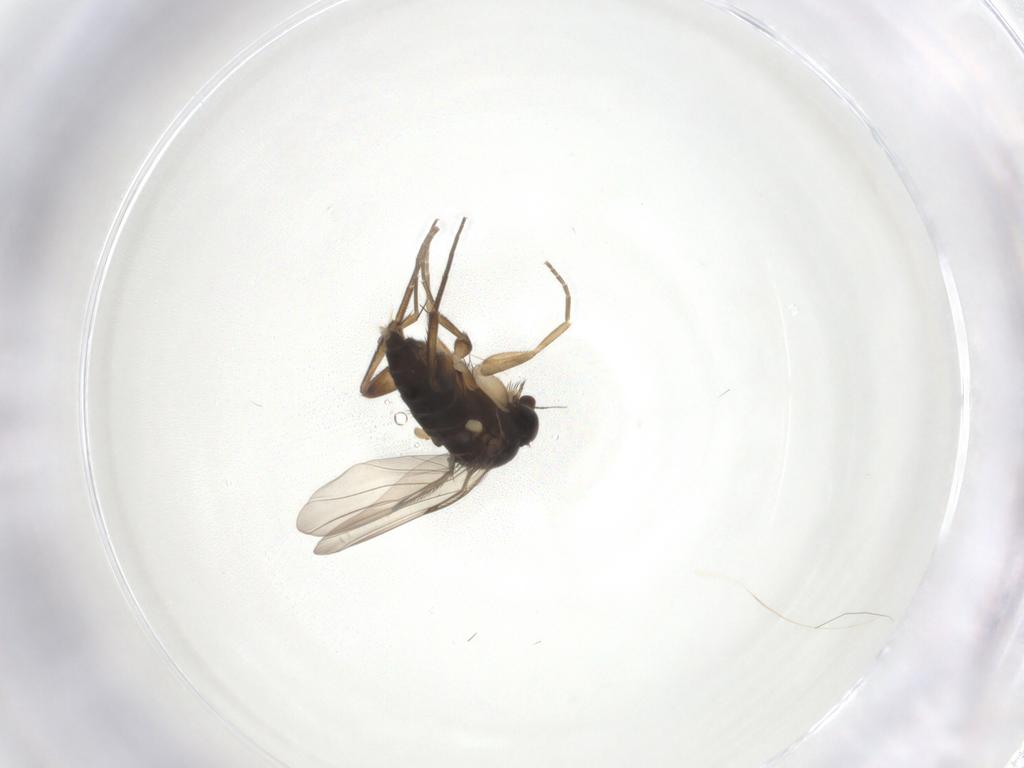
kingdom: Animalia
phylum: Arthropoda
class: Insecta
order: Diptera
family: Phoridae
